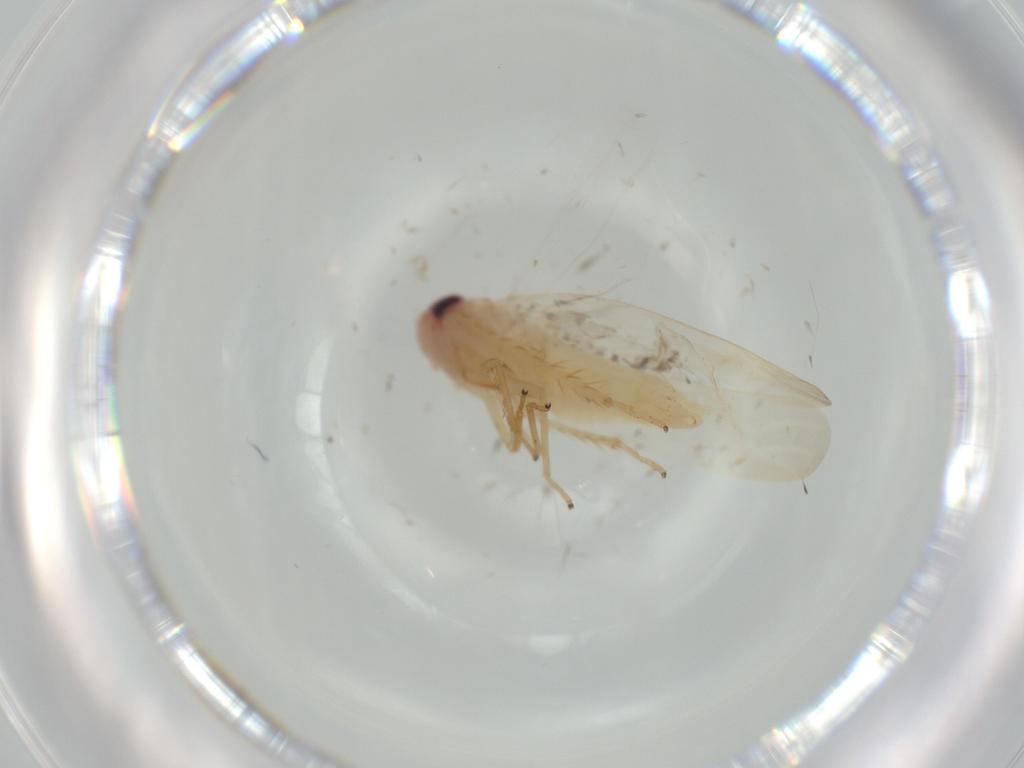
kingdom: Animalia
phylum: Arthropoda
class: Insecta
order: Hemiptera
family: Cicadellidae
